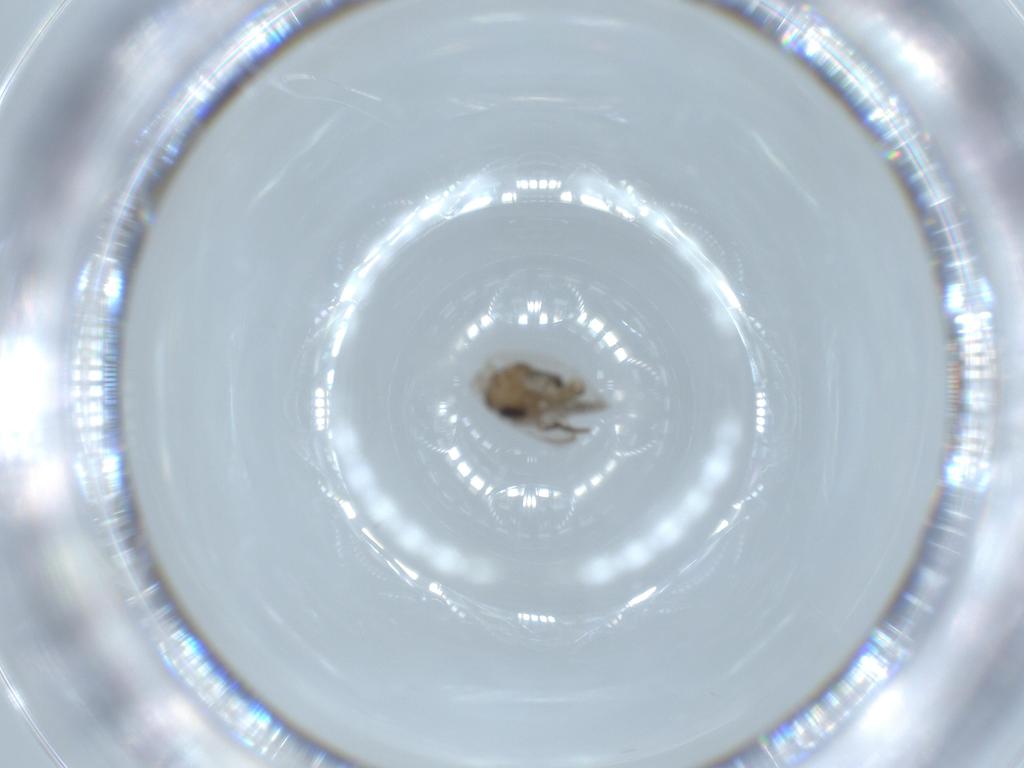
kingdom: Animalia
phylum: Arthropoda
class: Insecta
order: Diptera
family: Psychodidae
